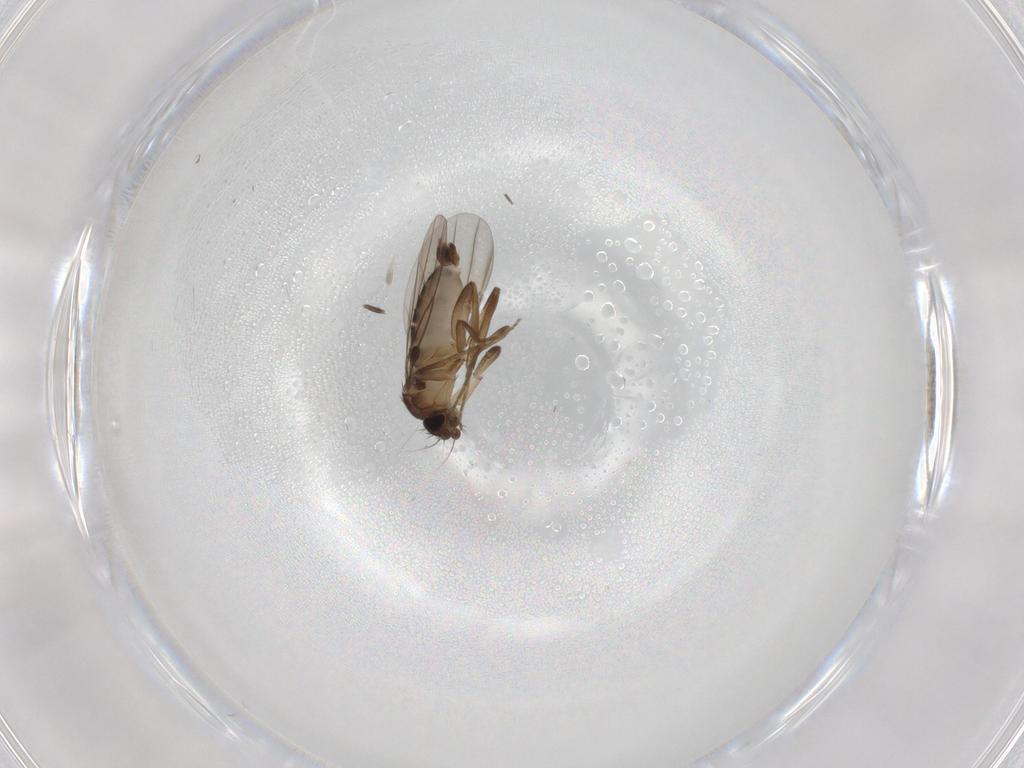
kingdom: Animalia
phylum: Arthropoda
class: Insecta
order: Diptera
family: Phoridae
